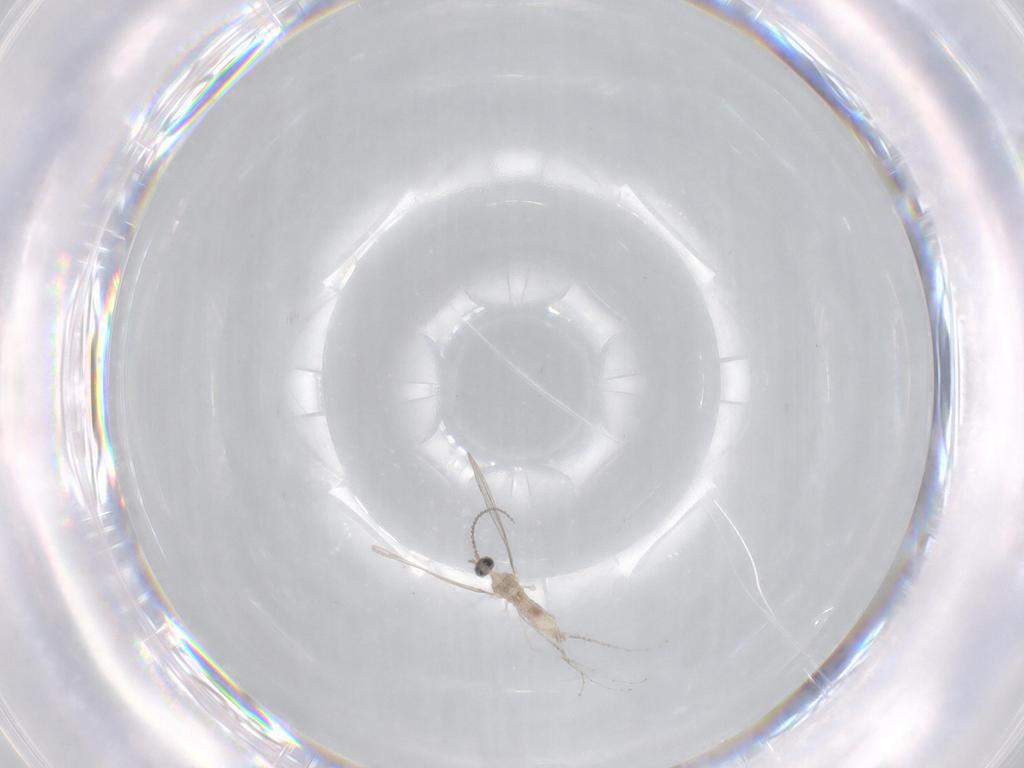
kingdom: Animalia
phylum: Arthropoda
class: Insecta
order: Diptera
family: Cecidomyiidae
